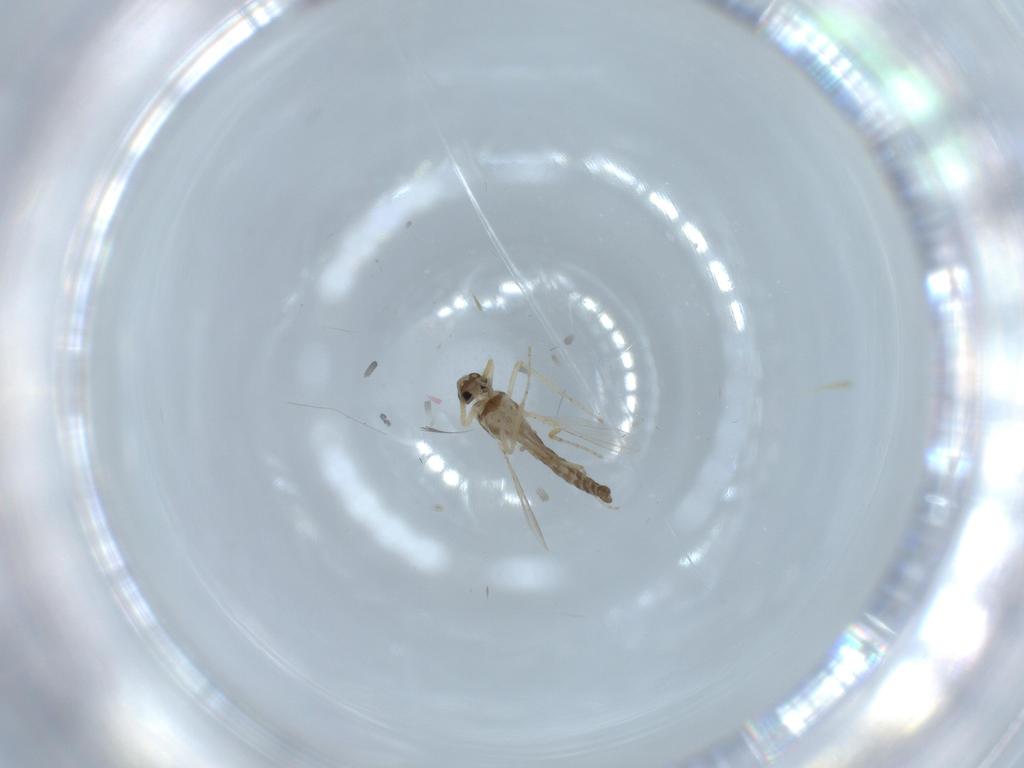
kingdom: Animalia
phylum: Arthropoda
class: Insecta
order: Diptera
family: Ceratopogonidae
